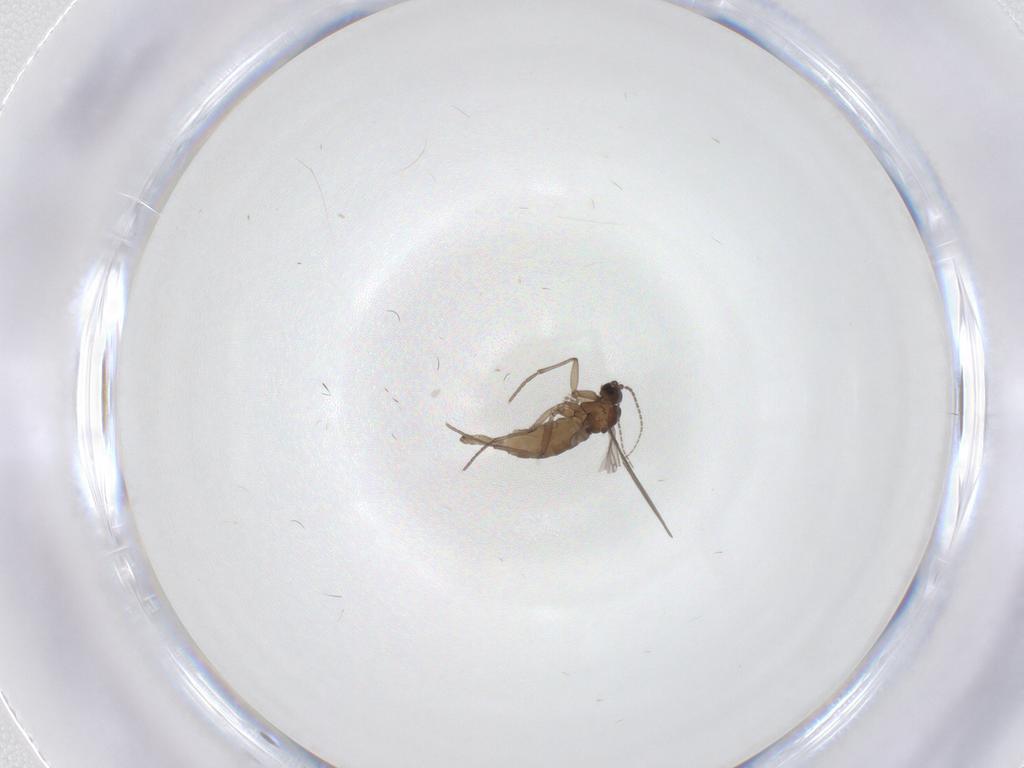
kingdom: Animalia
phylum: Arthropoda
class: Insecta
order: Diptera
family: Sciaridae
